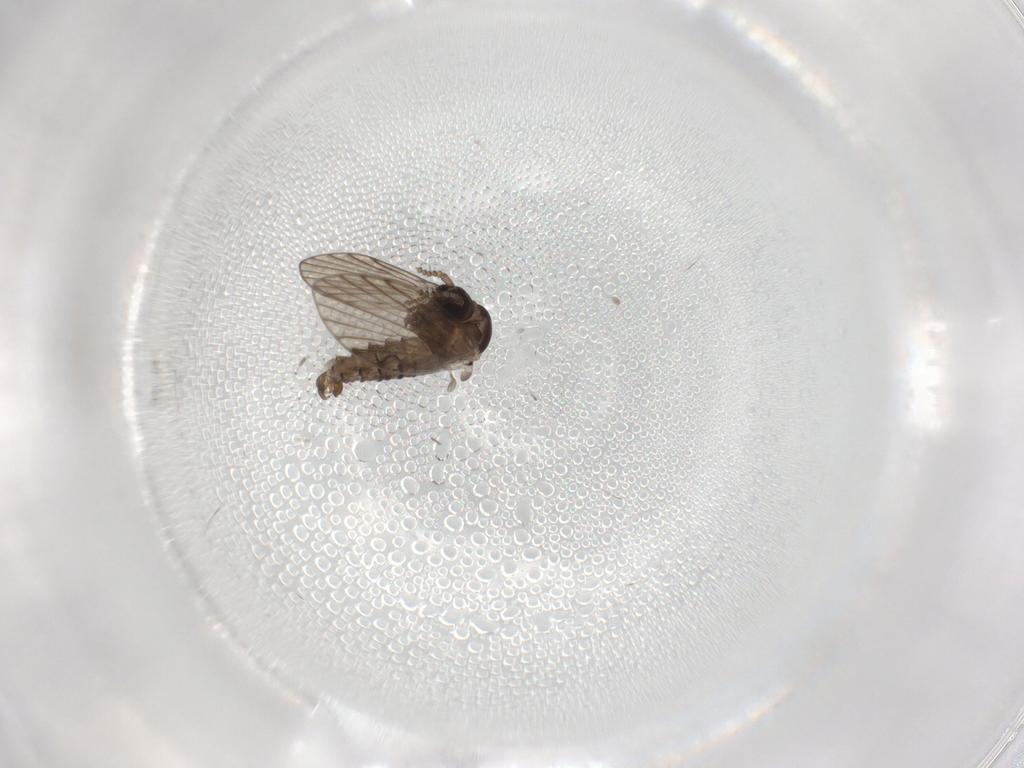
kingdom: Animalia
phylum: Arthropoda
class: Insecta
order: Diptera
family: Psychodidae
